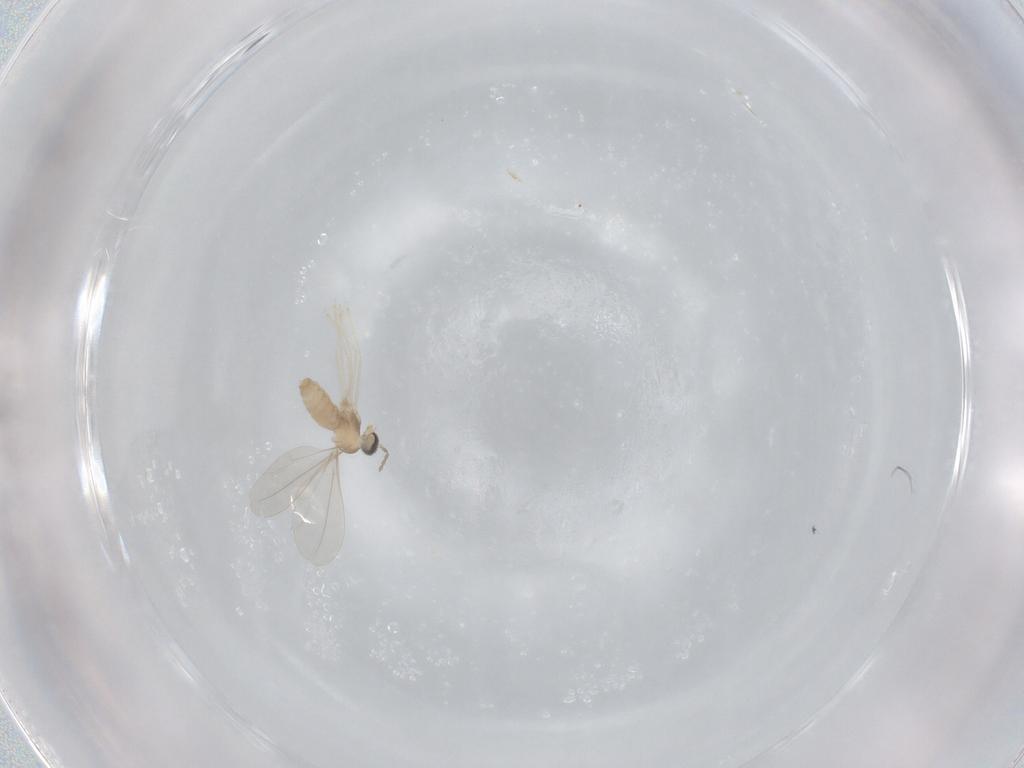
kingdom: Animalia
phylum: Arthropoda
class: Insecta
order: Diptera
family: Cecidomyiidae
